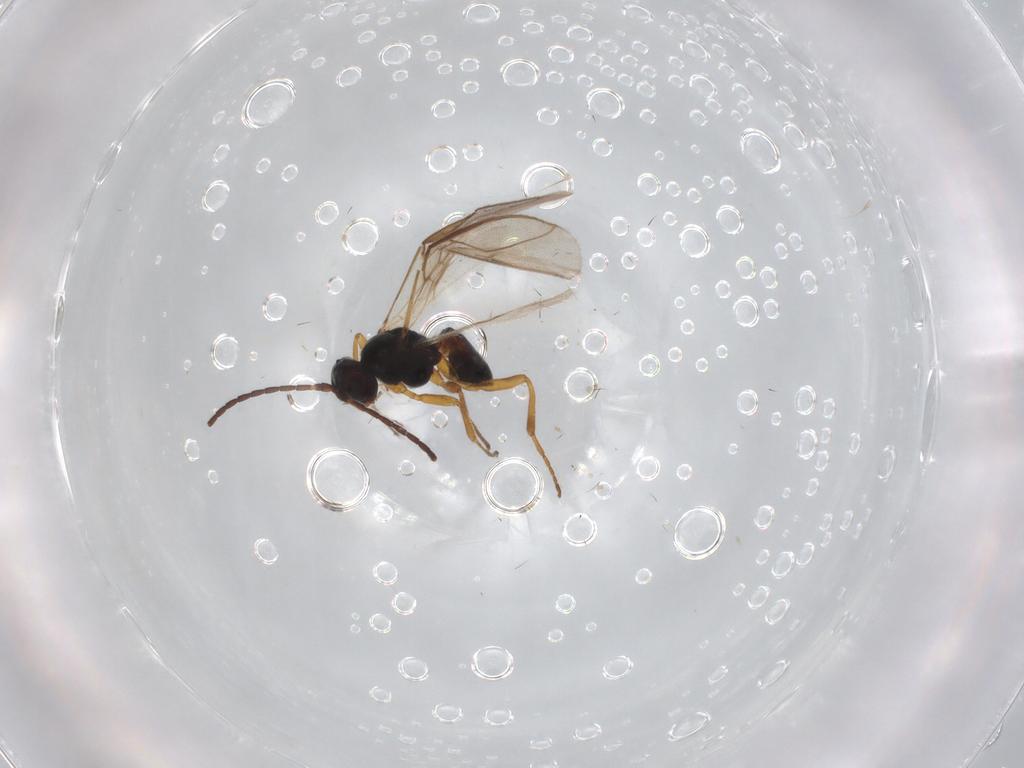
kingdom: Animalia
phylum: Arthropoda
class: Insecta
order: Hymenoptera
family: Braconidae
